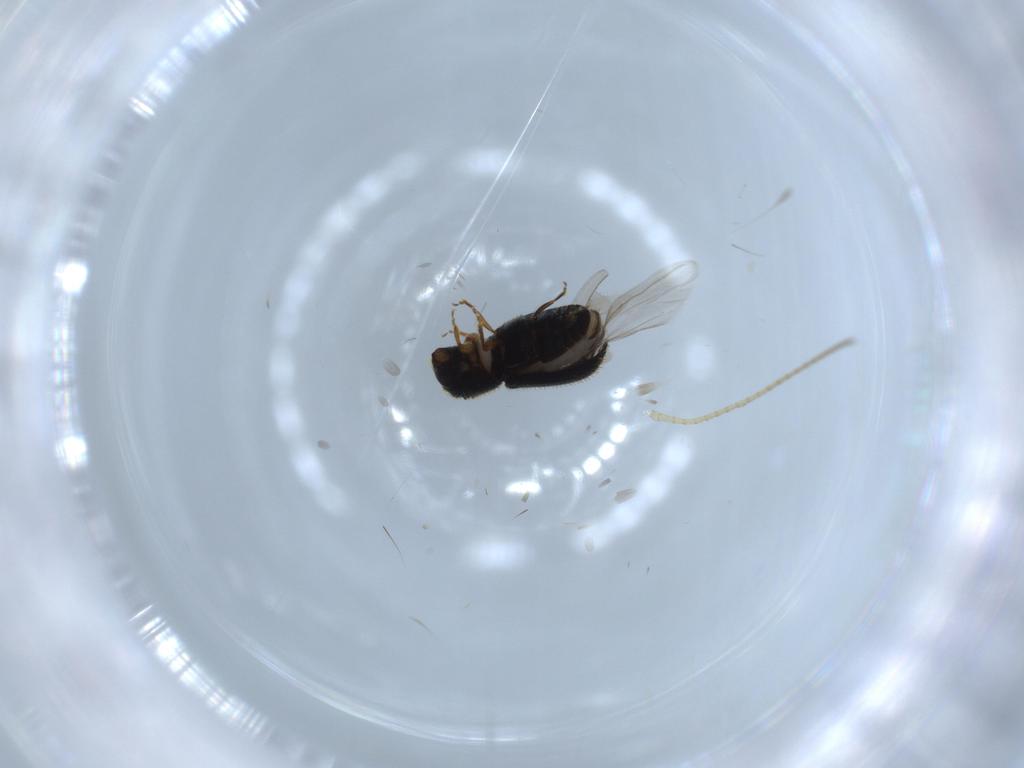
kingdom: Animalia
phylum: Arthropoda
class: Insecta
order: Coleoptera
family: Curculionidae
